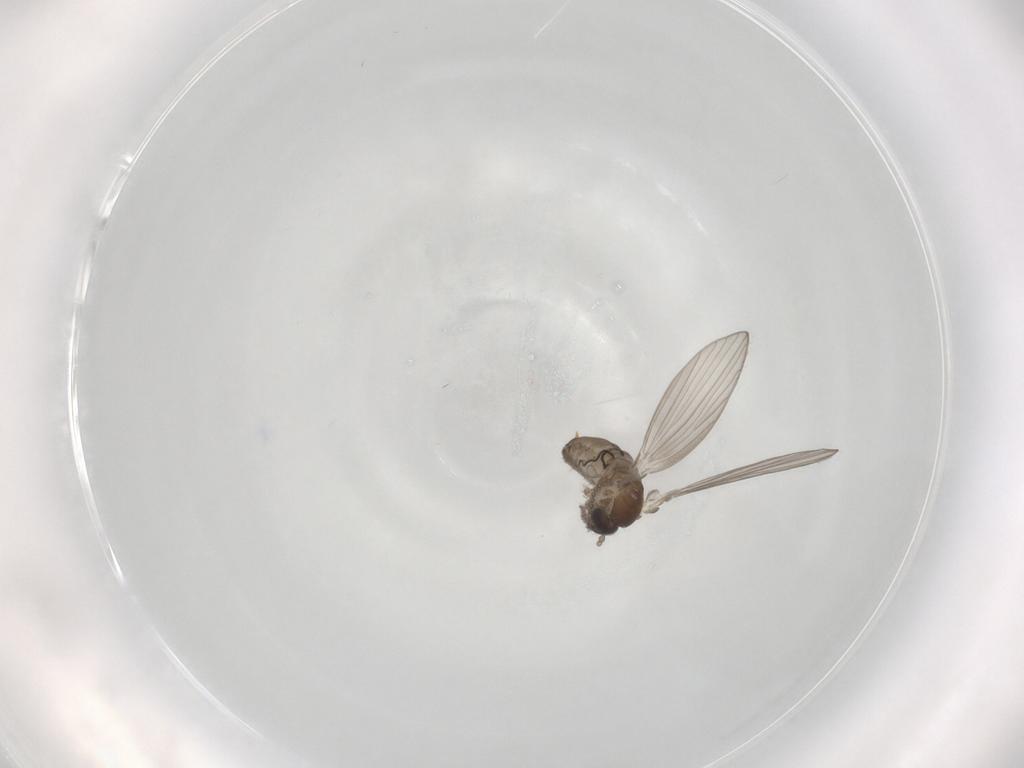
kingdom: Animalia
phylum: Arthropoda
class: Insecta
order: Diptera
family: Psychodidae
